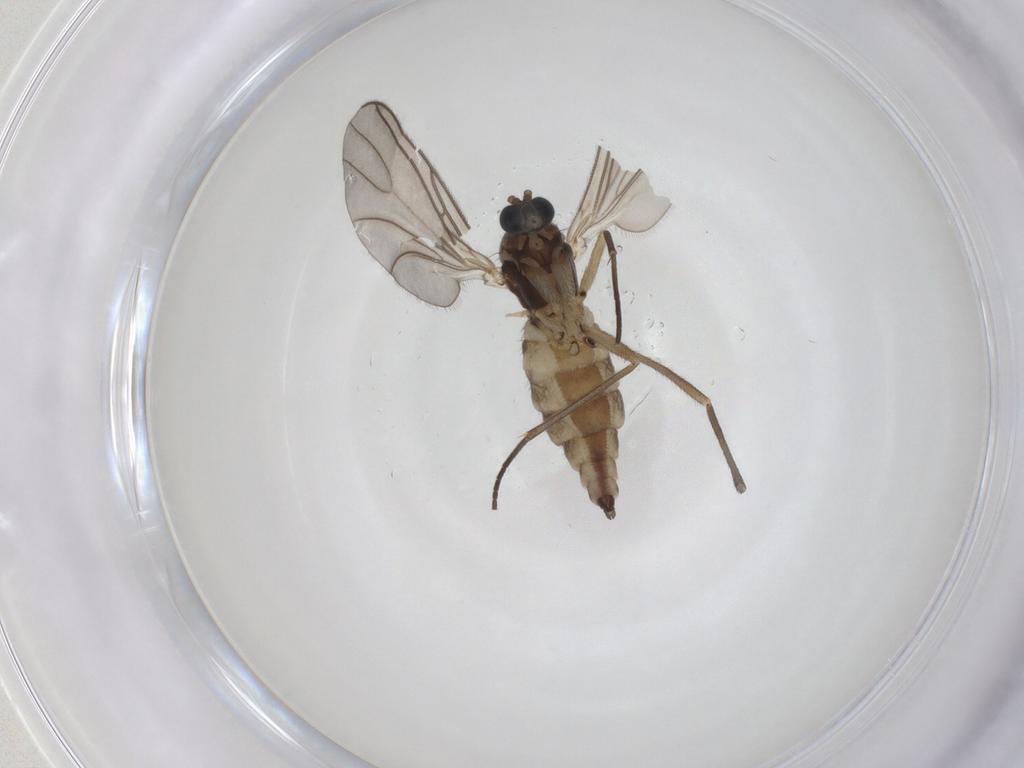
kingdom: Animalia
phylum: Arthropoda
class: Insecta
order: Diptera
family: Sciaridae
